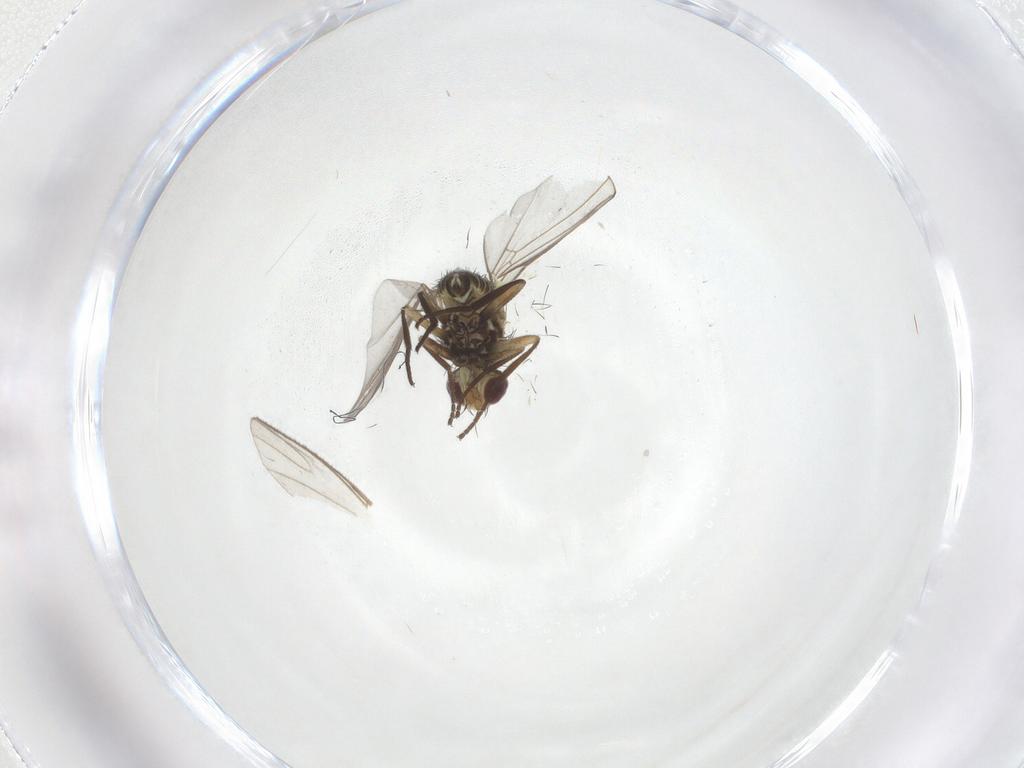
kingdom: Animalia
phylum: Arthropoda
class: Insecta
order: Diptera
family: Agromyzidae
